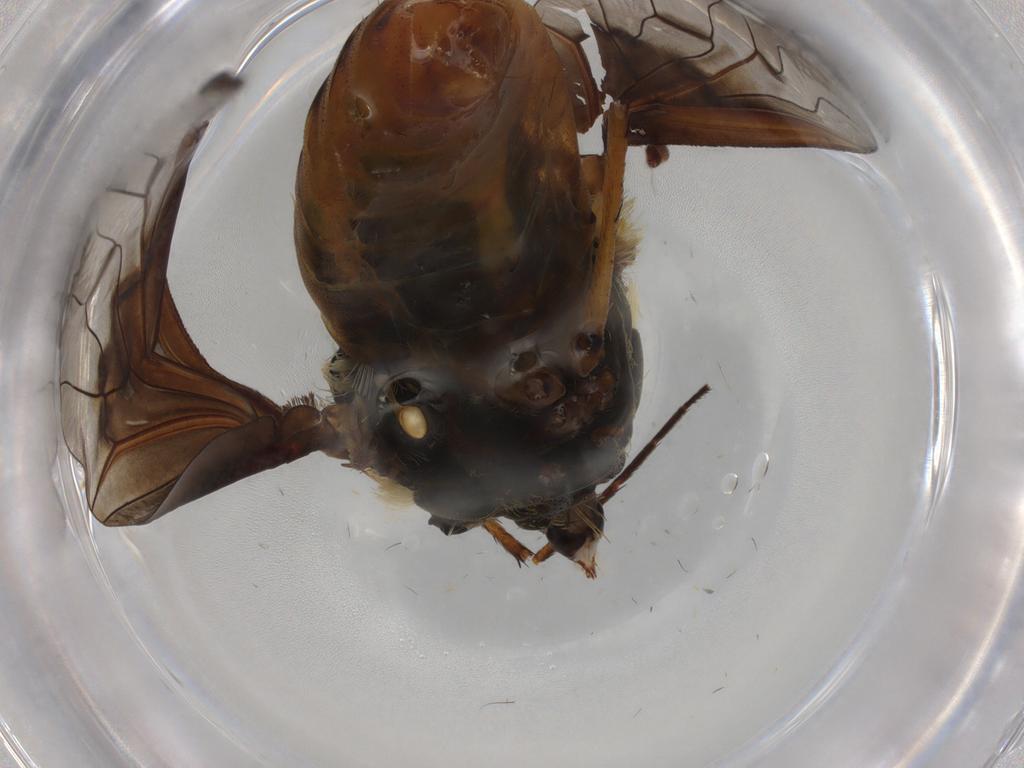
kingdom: Animalia
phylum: Arthropoda
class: Insecta
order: Diptera
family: Bombyliidae
